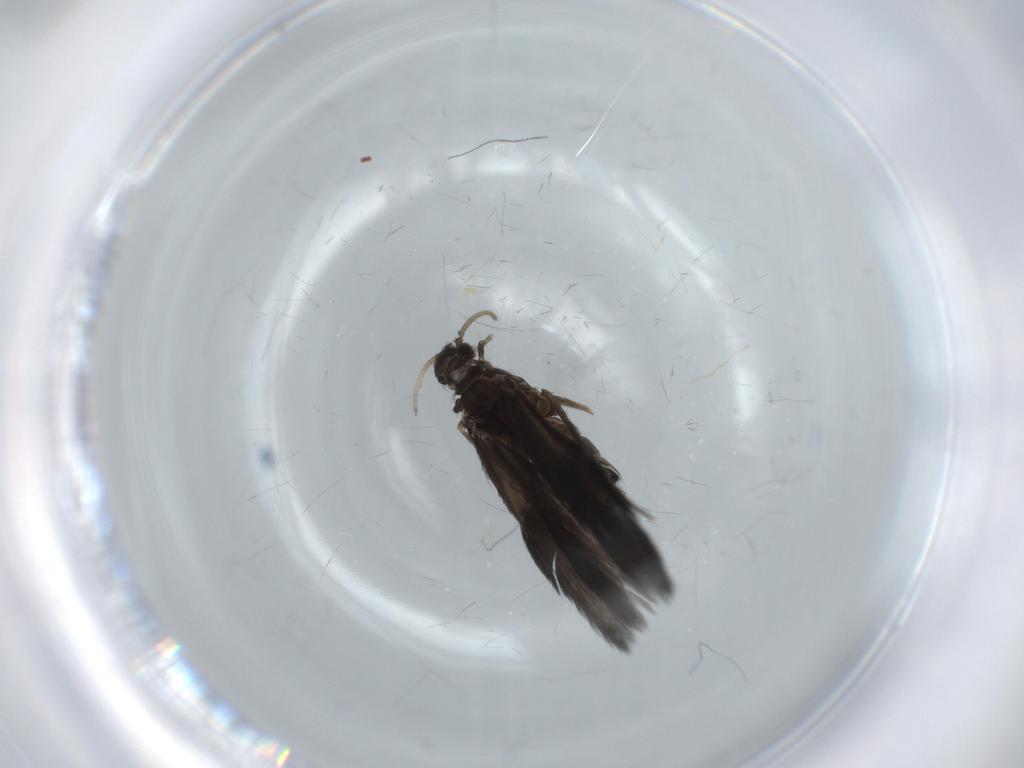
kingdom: Animalia
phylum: Arthropoda
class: Insecta
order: Trichoptera
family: Hydroptilidae
